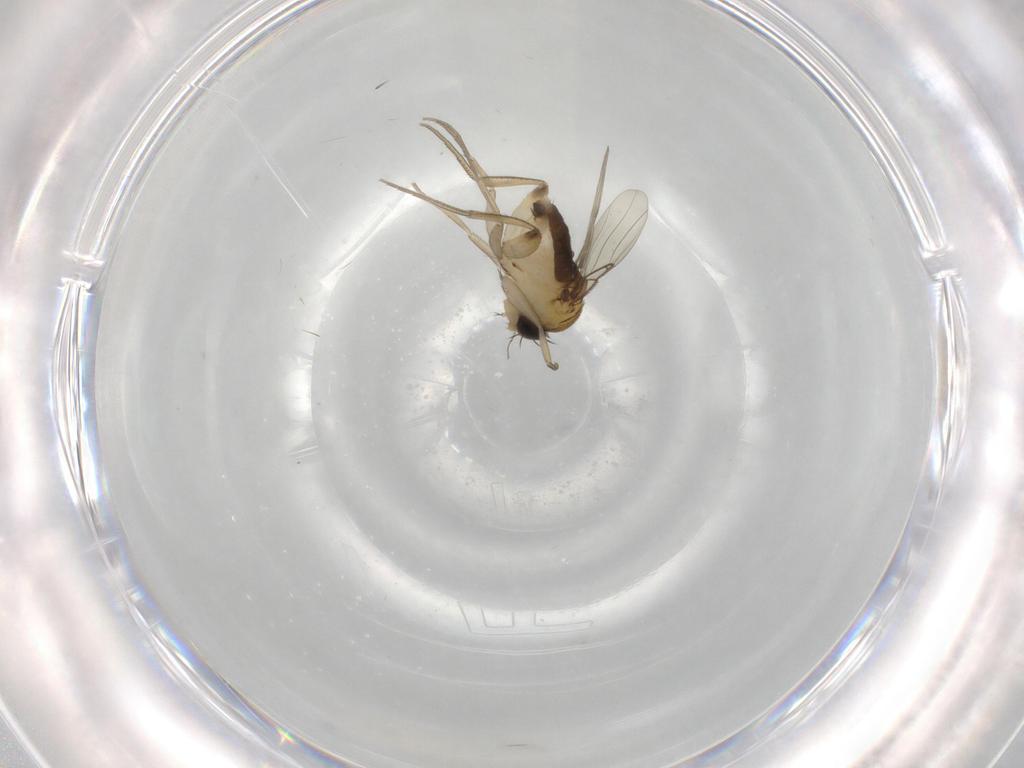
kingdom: Animalia
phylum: Arthropoda
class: Insecta
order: Diptera
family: Phoridae
